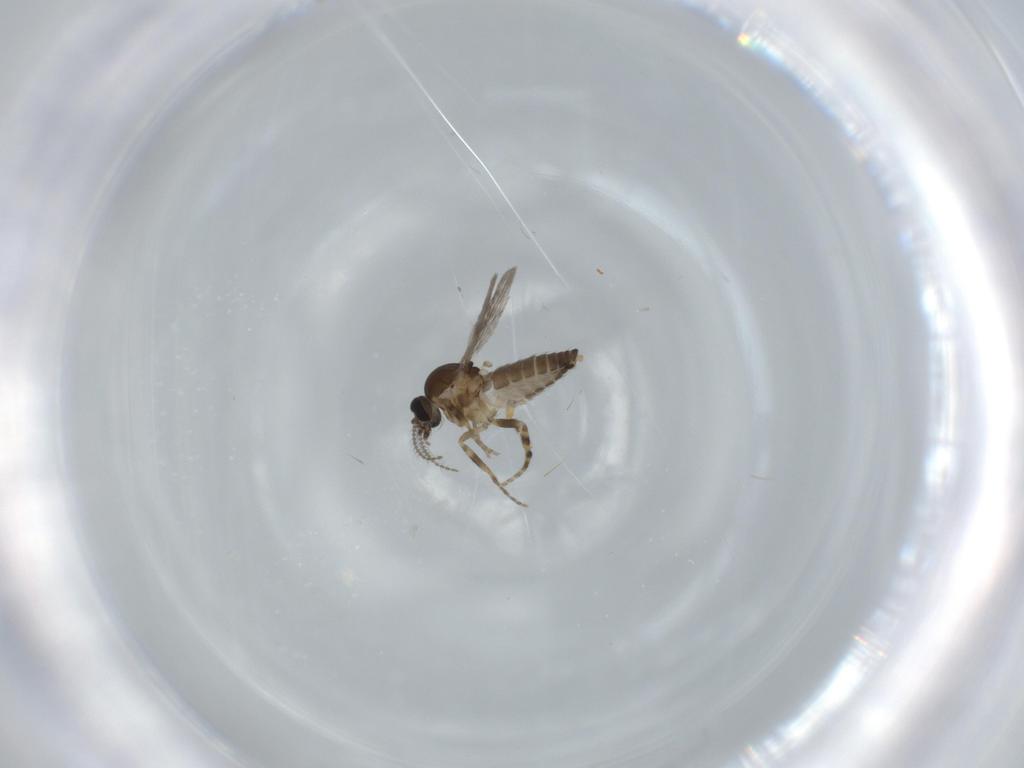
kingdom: Animalia
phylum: Arthropoda
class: Insecta
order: Diptera
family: Ceratopogonidae
